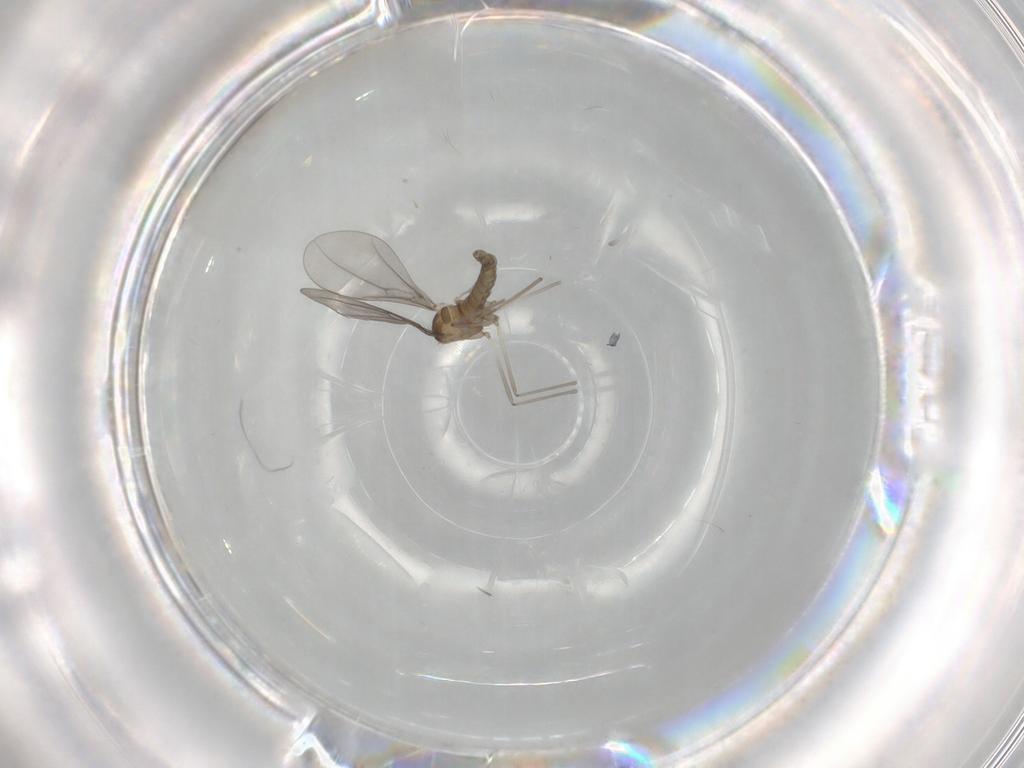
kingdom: Animalia
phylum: Arthropoda
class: Insecta
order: Diptera
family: Cecidomyiidae
